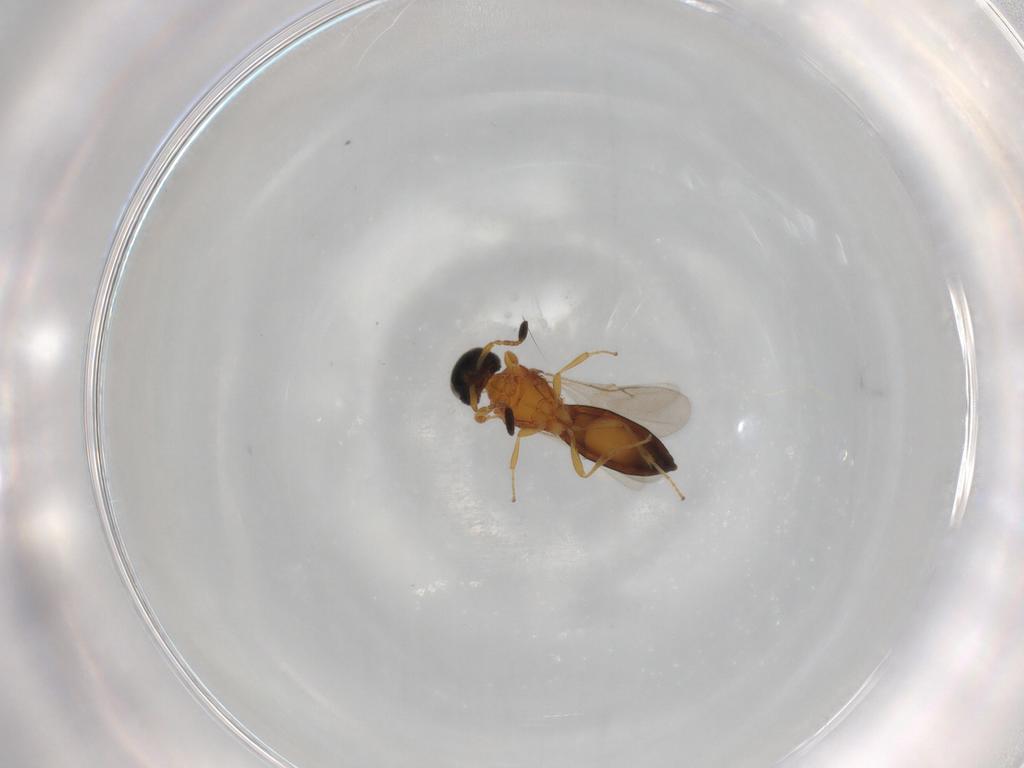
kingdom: Animalia
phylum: Arthropoda
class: Insecta
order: Hymenoptera
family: Scelionidae
